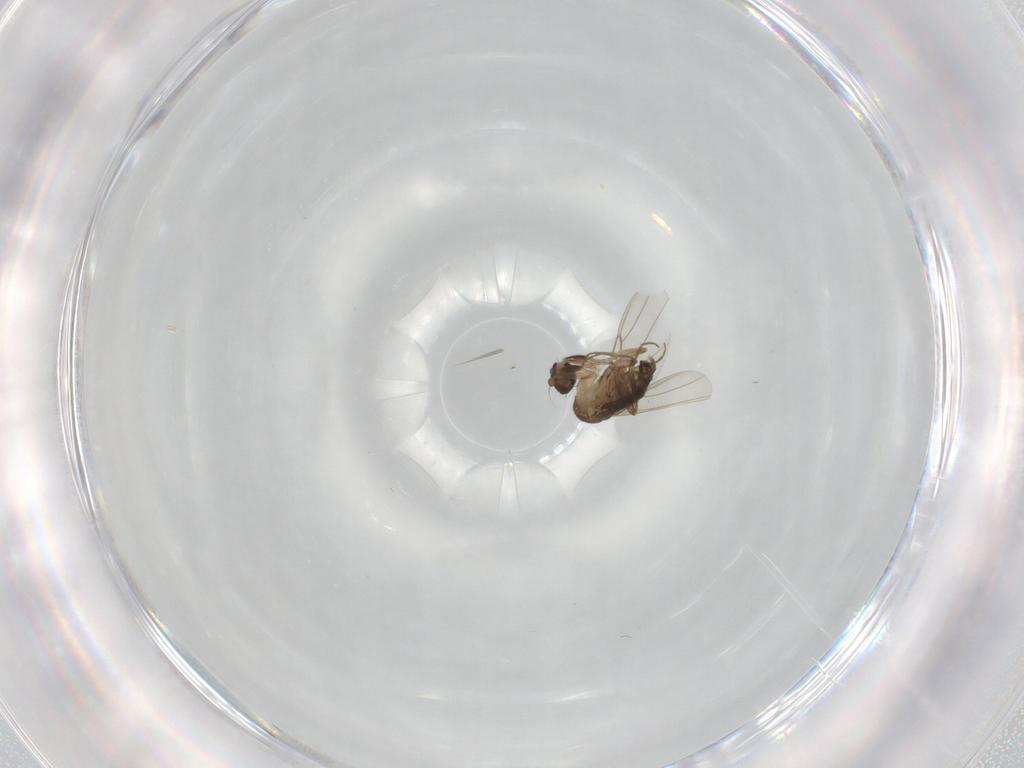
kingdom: Animalia
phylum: Arthropoda
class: Insecta
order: Diptera
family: Phoridae
